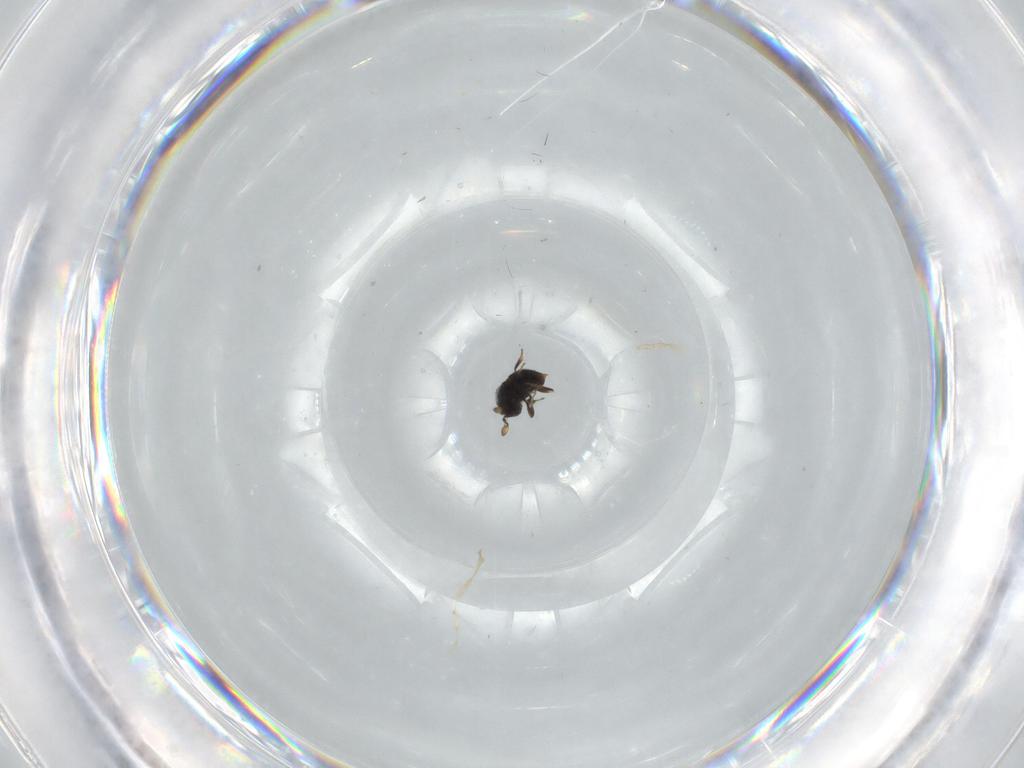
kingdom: Animalia
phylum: Arthropoda
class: Insecta
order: Hymenoptera
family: Scelionidae
